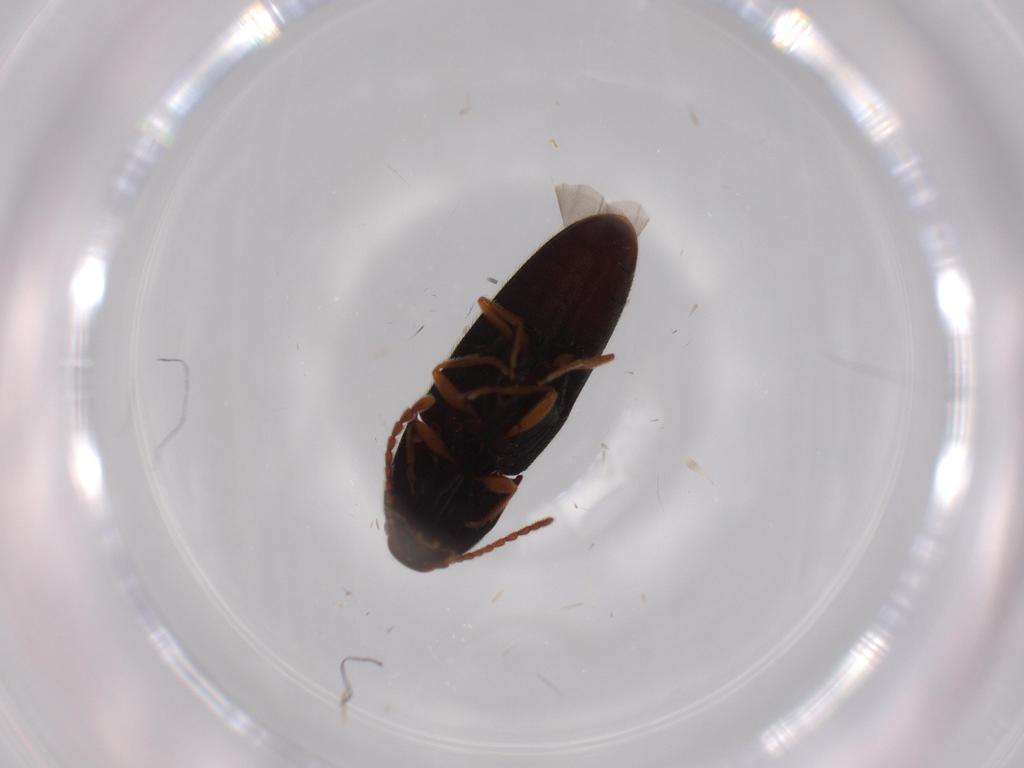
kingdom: Animalia
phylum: Arthropoda
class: Insecta
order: Coleoptera
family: Elateridae
